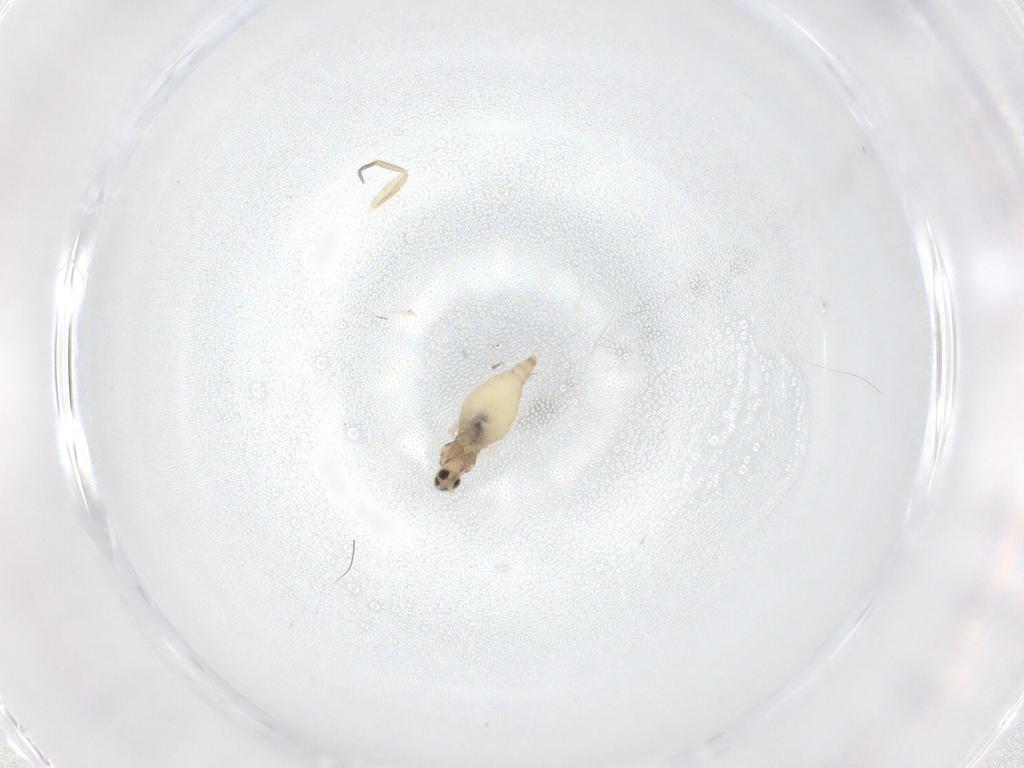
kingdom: Animalia
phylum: Arthropoda
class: Insecta
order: Diptera
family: Cecidomyiidae
